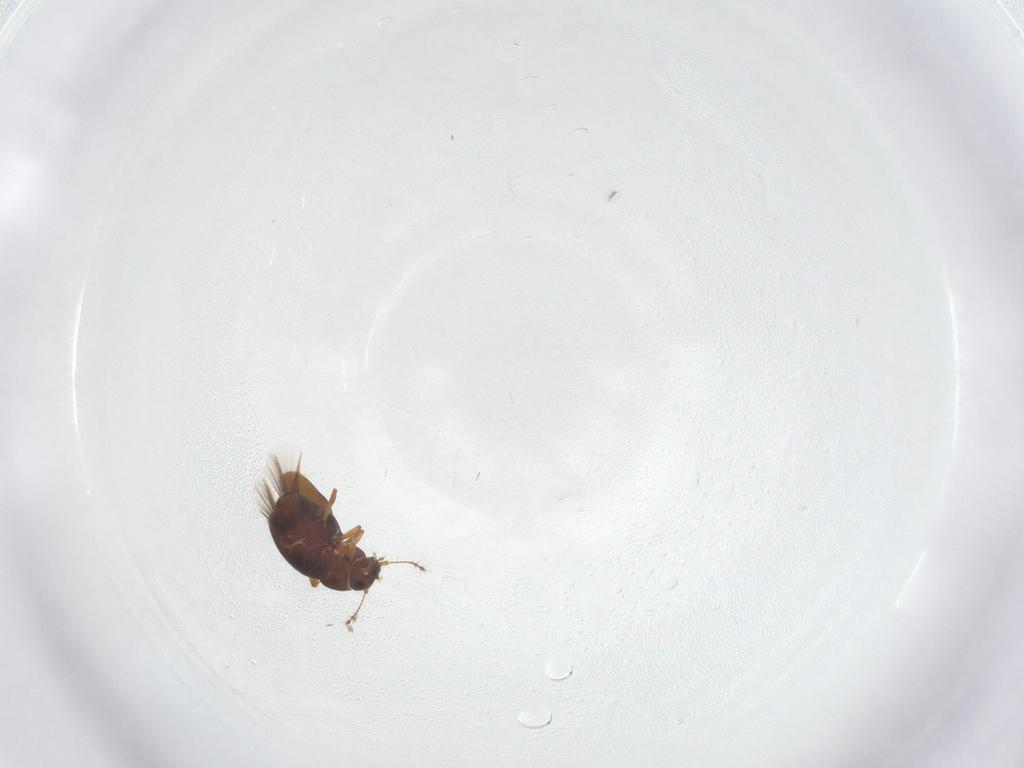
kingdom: Animalia
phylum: Arthropoda
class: Insecta
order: Coleoptera
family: Ptiliidae
